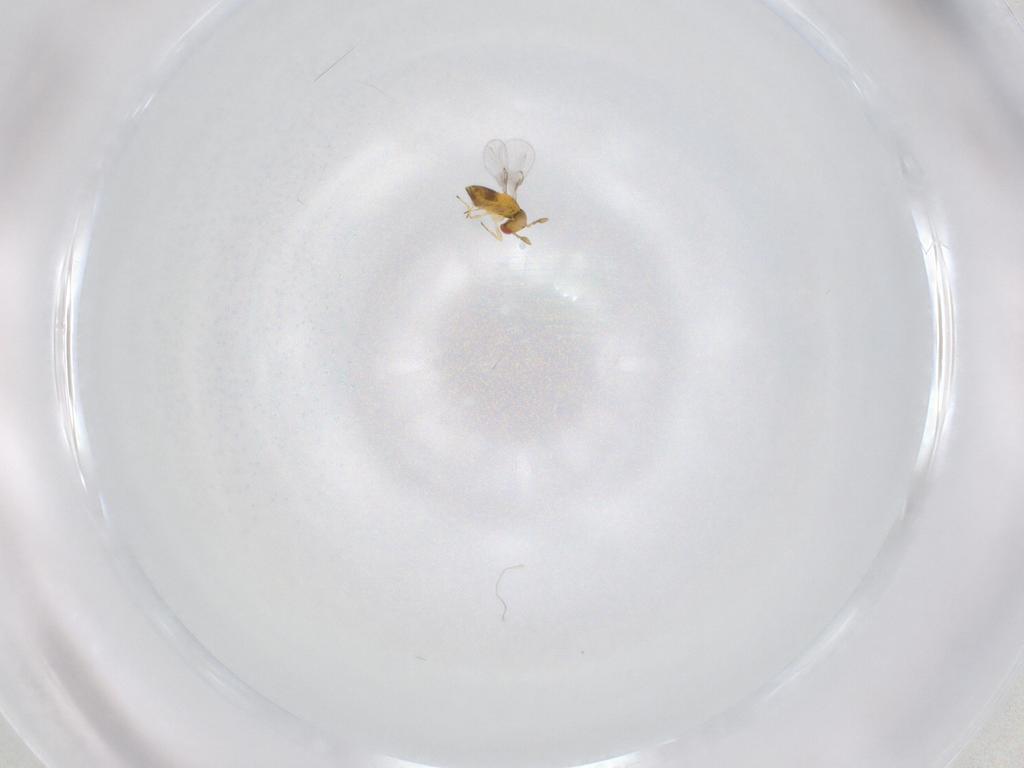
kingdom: Animalia
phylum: Arthropoda
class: Insecta
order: Hymenoptera
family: Trichogrammatidae
